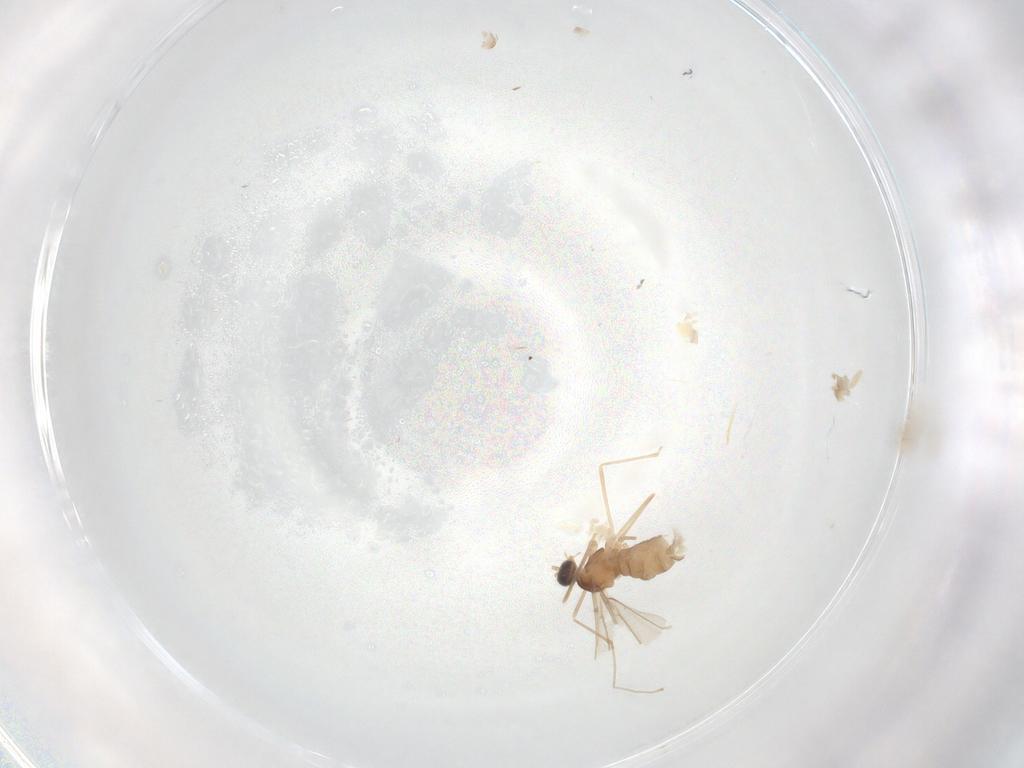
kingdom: Animalia
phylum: Arthropoda
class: Insecta
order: Diptera
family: Cecidomyiidae
